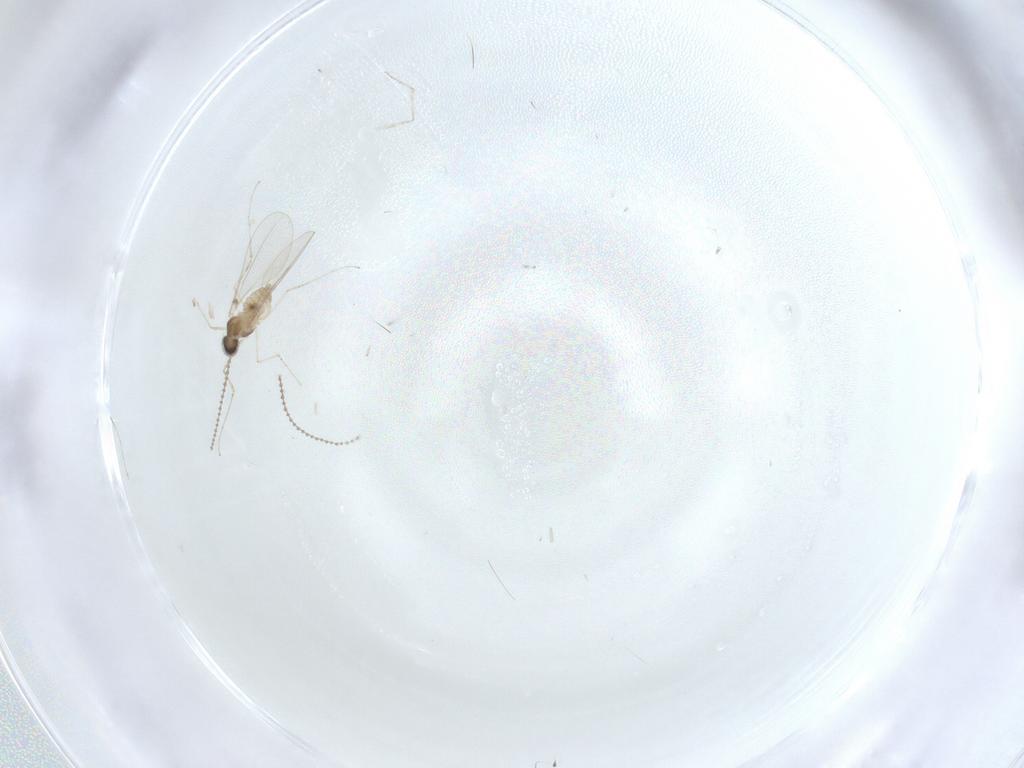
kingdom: Animalia
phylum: Arthropoda
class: Insecta
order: Diptera
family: Cecidomyiidae
